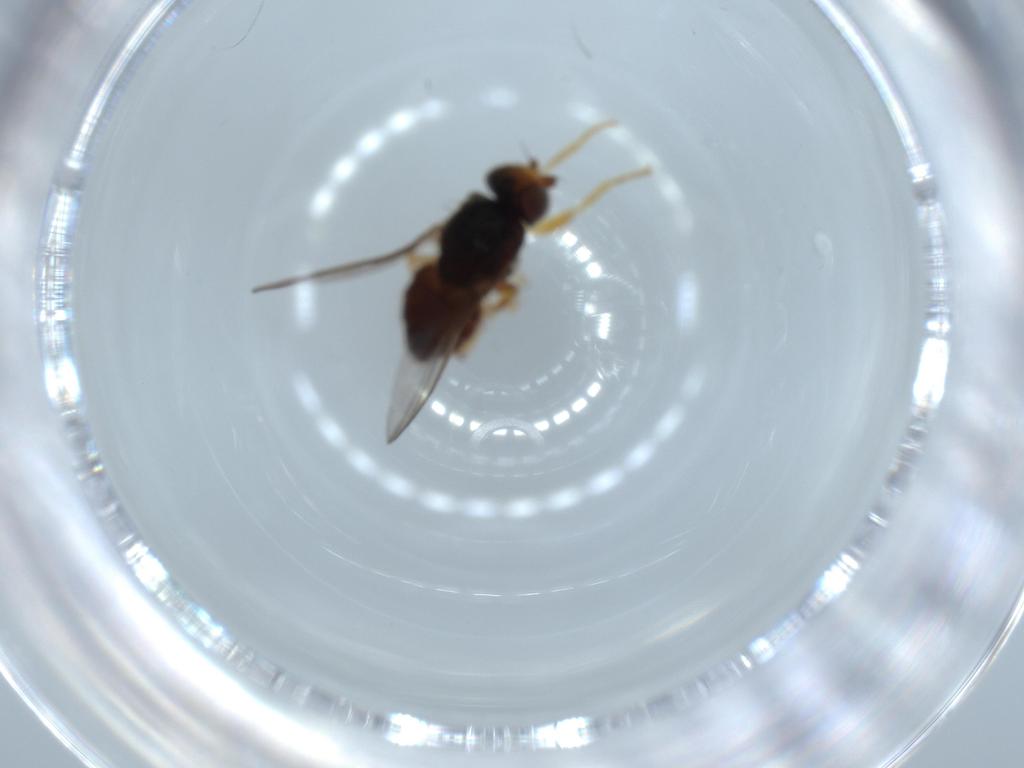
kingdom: Animalia
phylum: Arthropoda
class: Insecta
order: Diptera
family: Chloropidae
